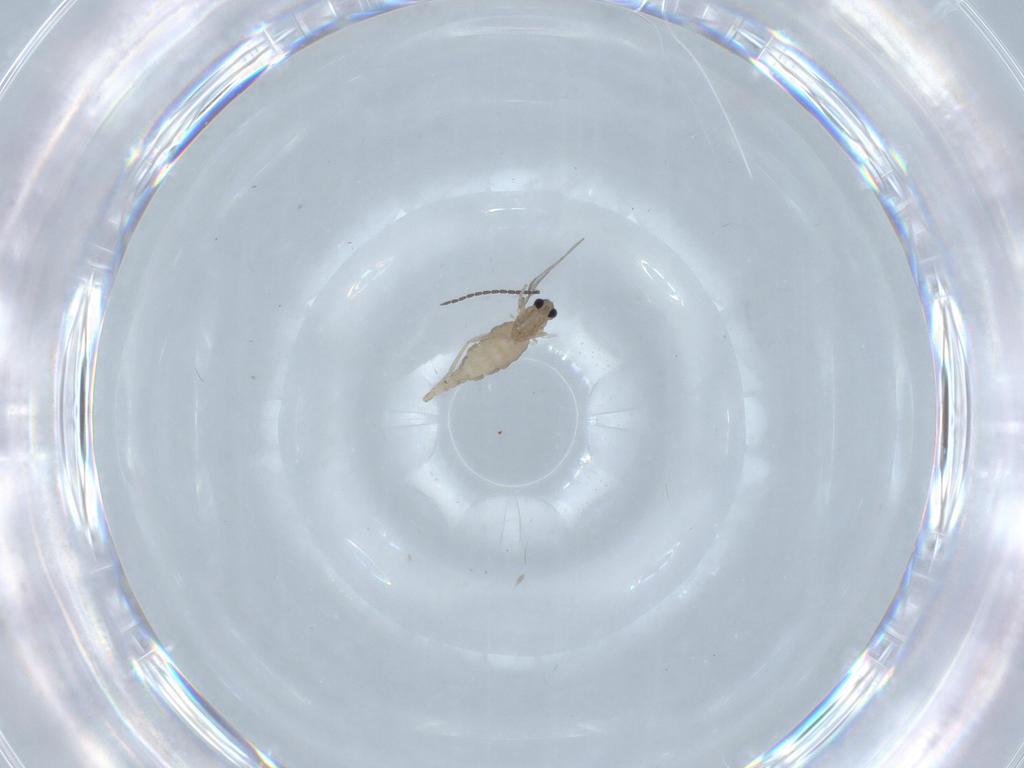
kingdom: Animalia
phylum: Arthropoda
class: Insecta
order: Diptera
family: Cecidomyiidae
